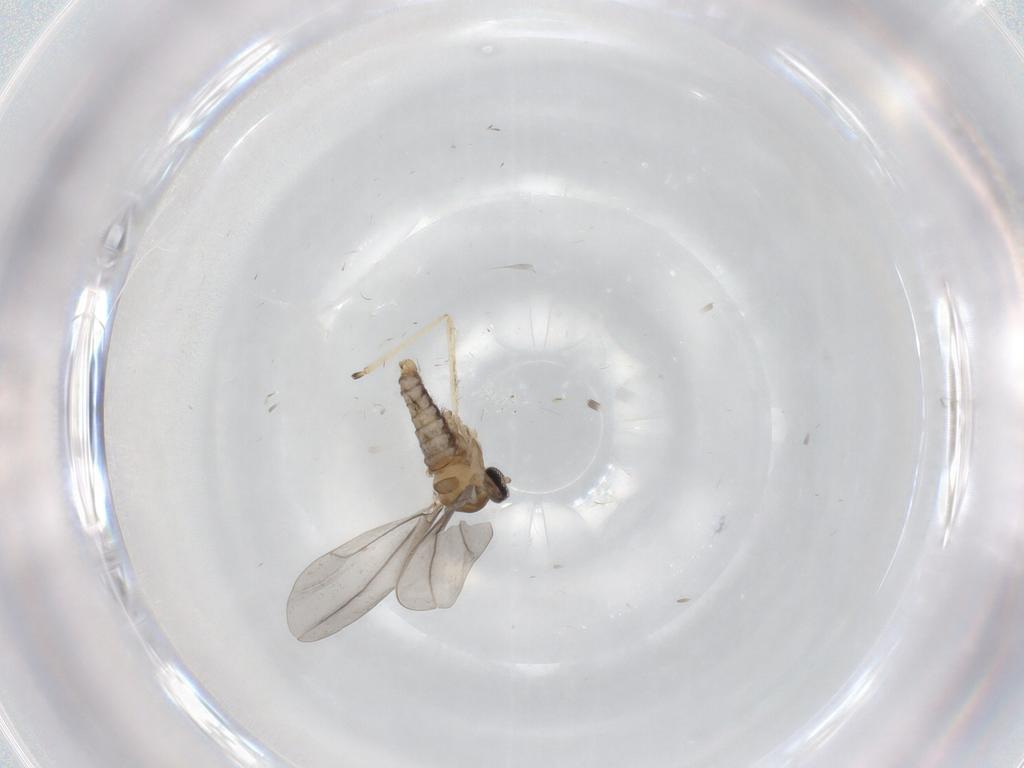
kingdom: Animalia
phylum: Arthropoda
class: Insecta
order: Diptera
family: Cecidomyiidae
